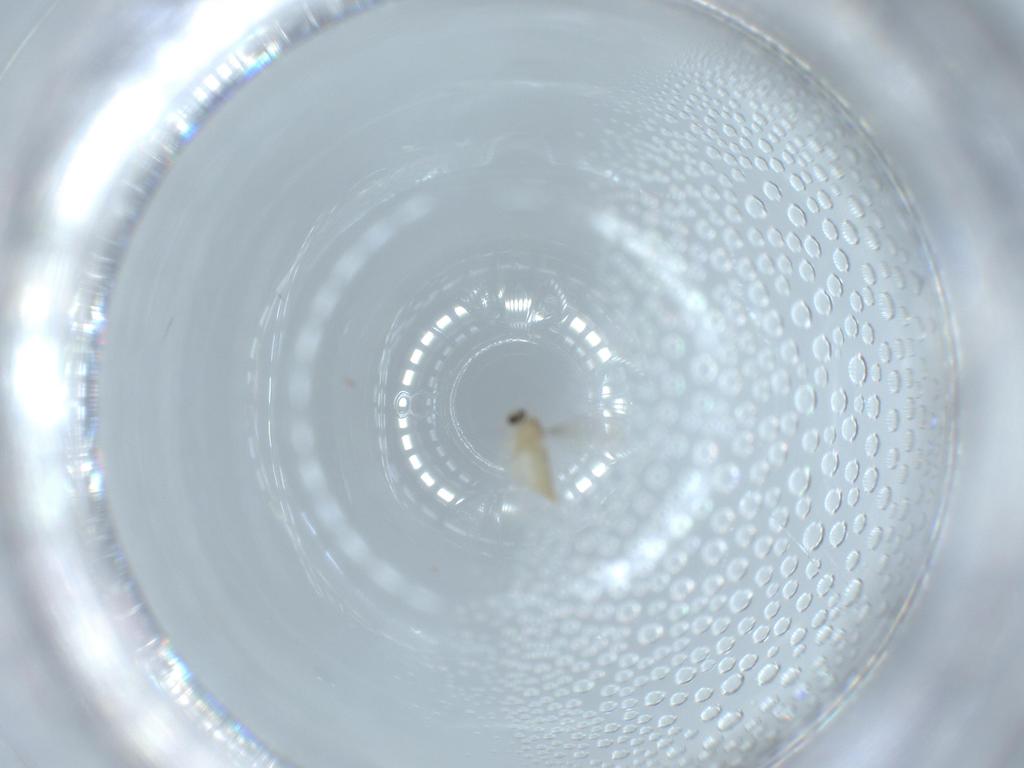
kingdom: Animalia
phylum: Arthropoda
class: Insecta
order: Diptera
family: Cecidomyiidae
